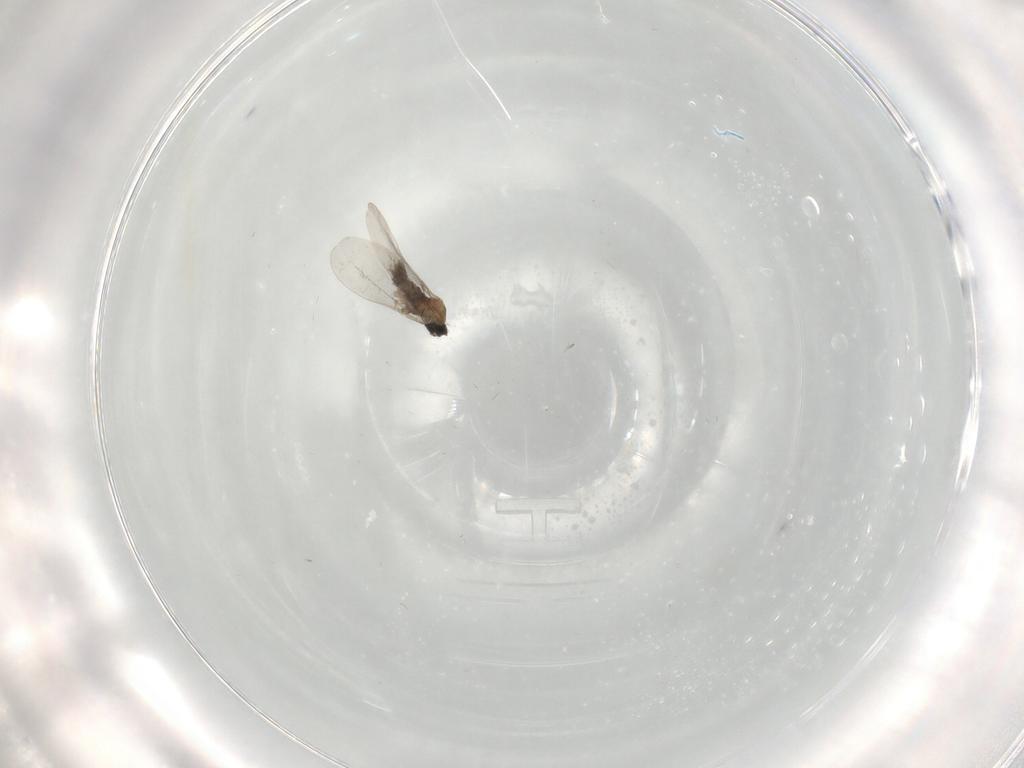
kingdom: Animalia
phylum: Arthropoda
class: Insecta
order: Diptera
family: Cecidomyiidae
